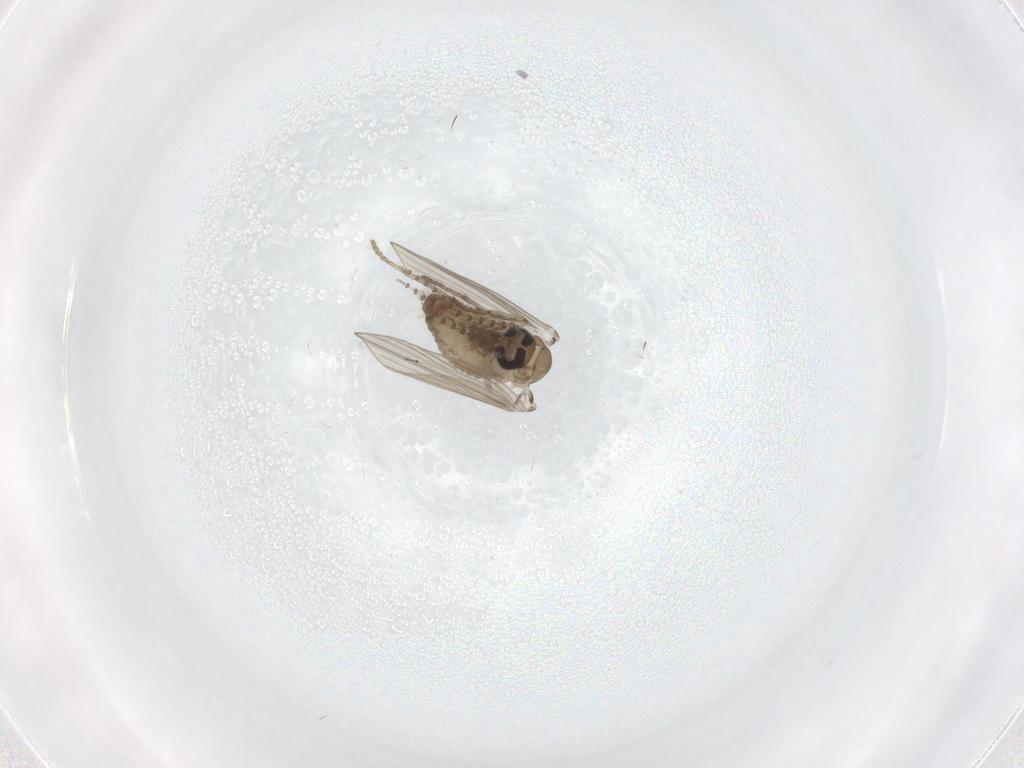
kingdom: Animalia
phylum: Arthropoda
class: Insecta
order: Diptera
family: Psychodidae
